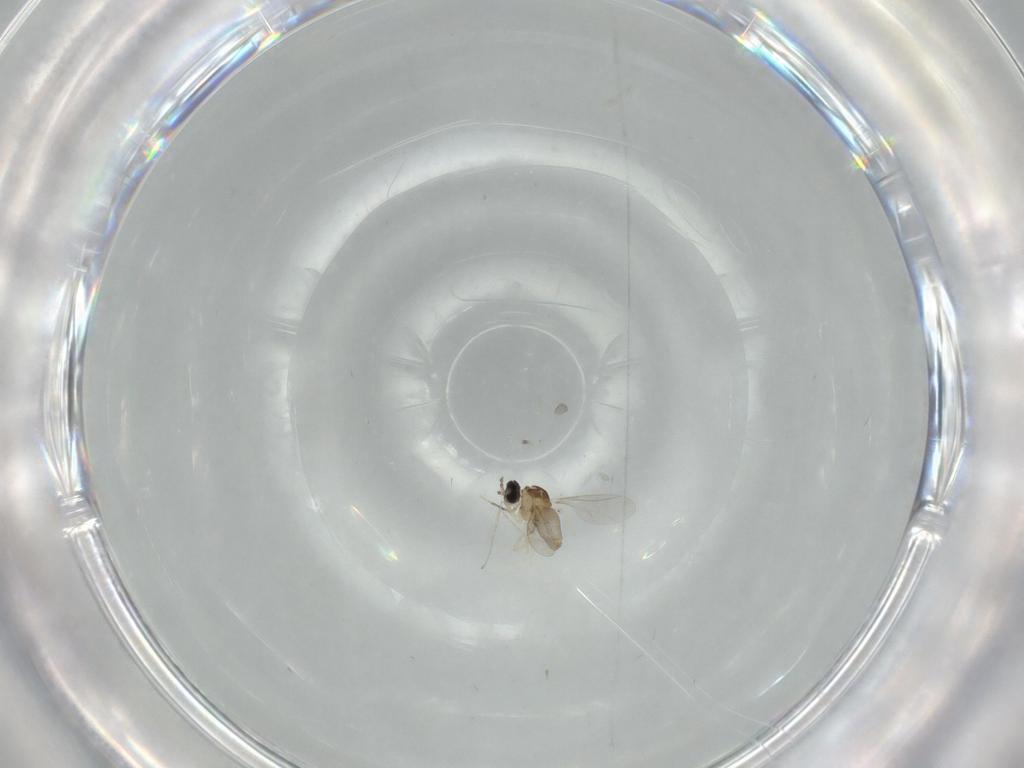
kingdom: Animalia
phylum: Arthropoda
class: Insecta
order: Diptera
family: Cecidomyiidae
